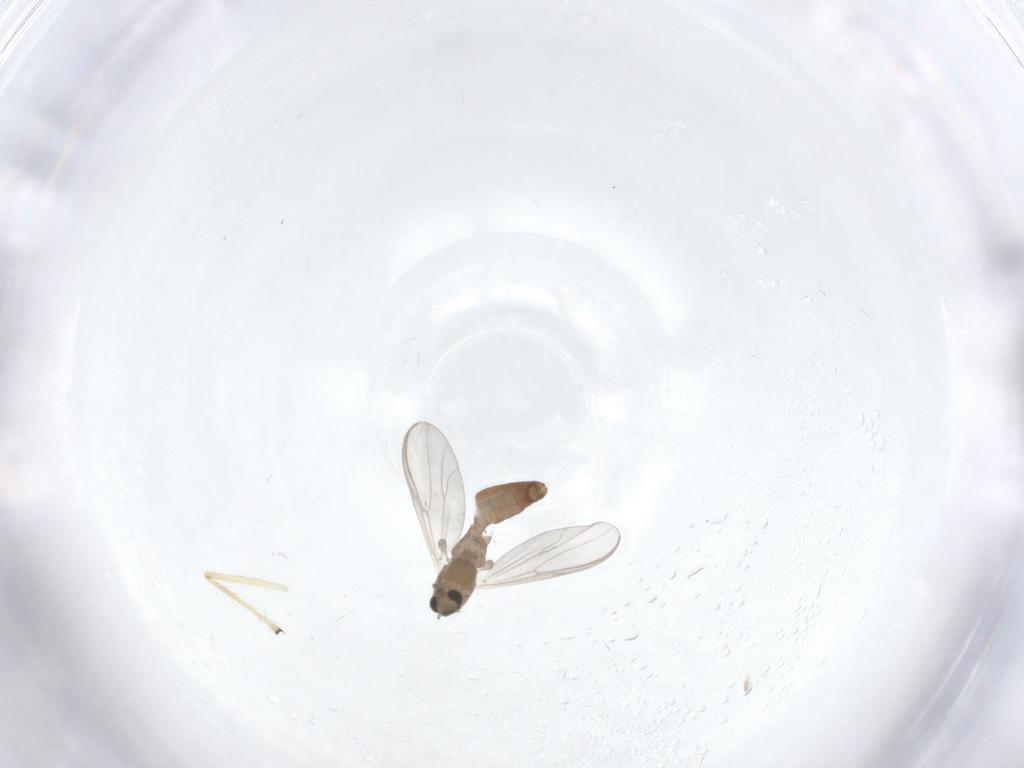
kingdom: Animalia
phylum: Arthropoda
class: Insecta
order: Diptera
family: Chironomidae
